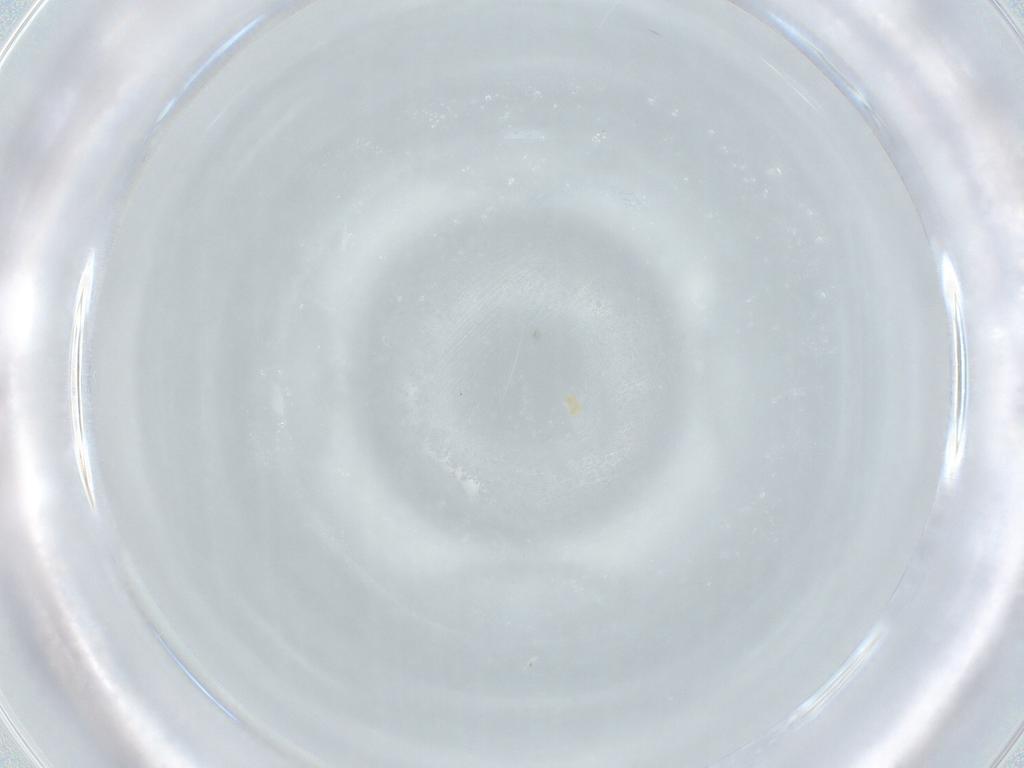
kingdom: Animalia
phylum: Arthropoda
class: Arachnida
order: Trombidiformes
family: Tydeidae
